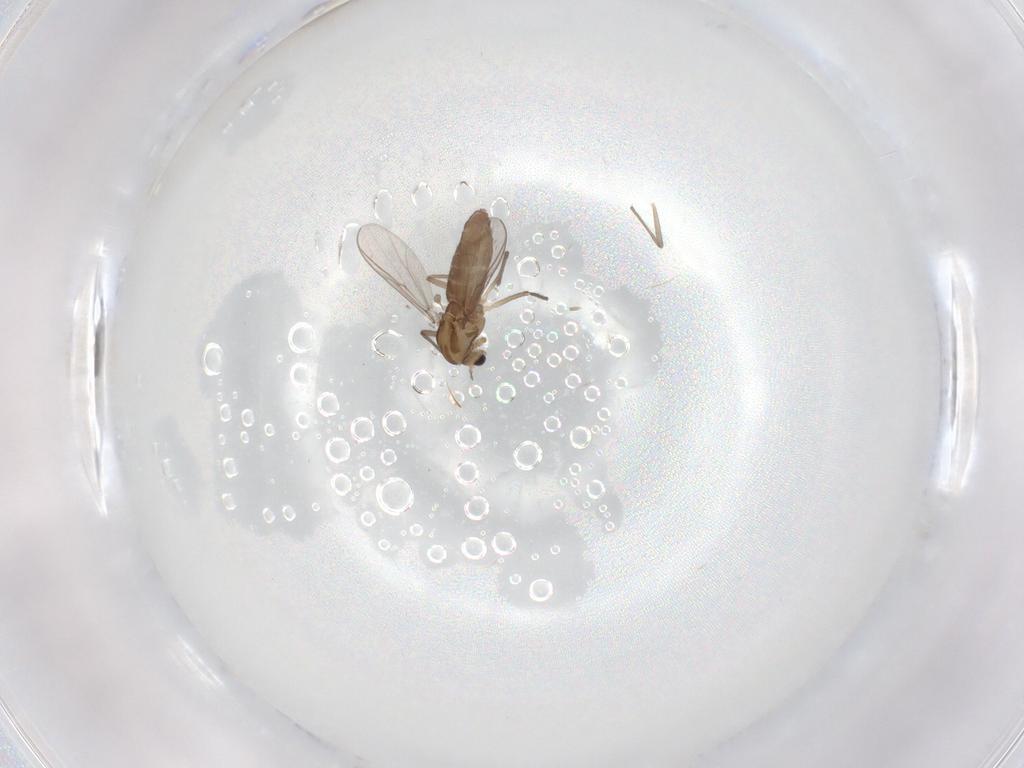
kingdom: Animalia
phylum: Arthropoda
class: Insecta
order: Diptera
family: Chironomidae
